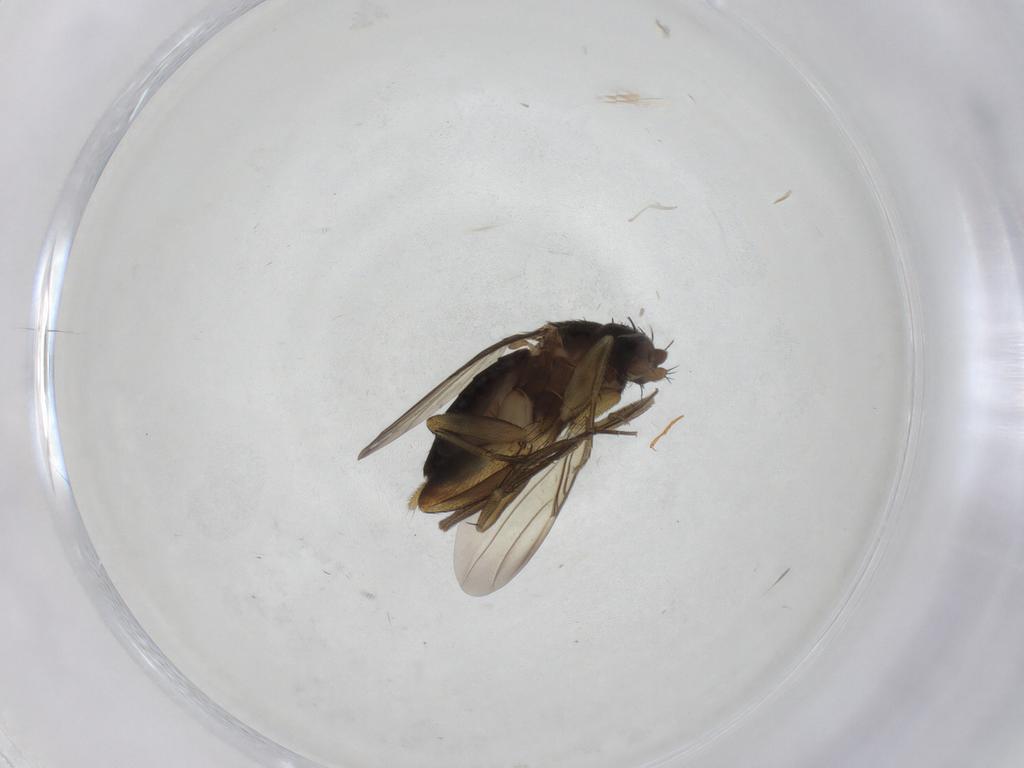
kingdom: Animalia
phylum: Arthropoda
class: Insecta
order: Diptera
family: Phoridae
